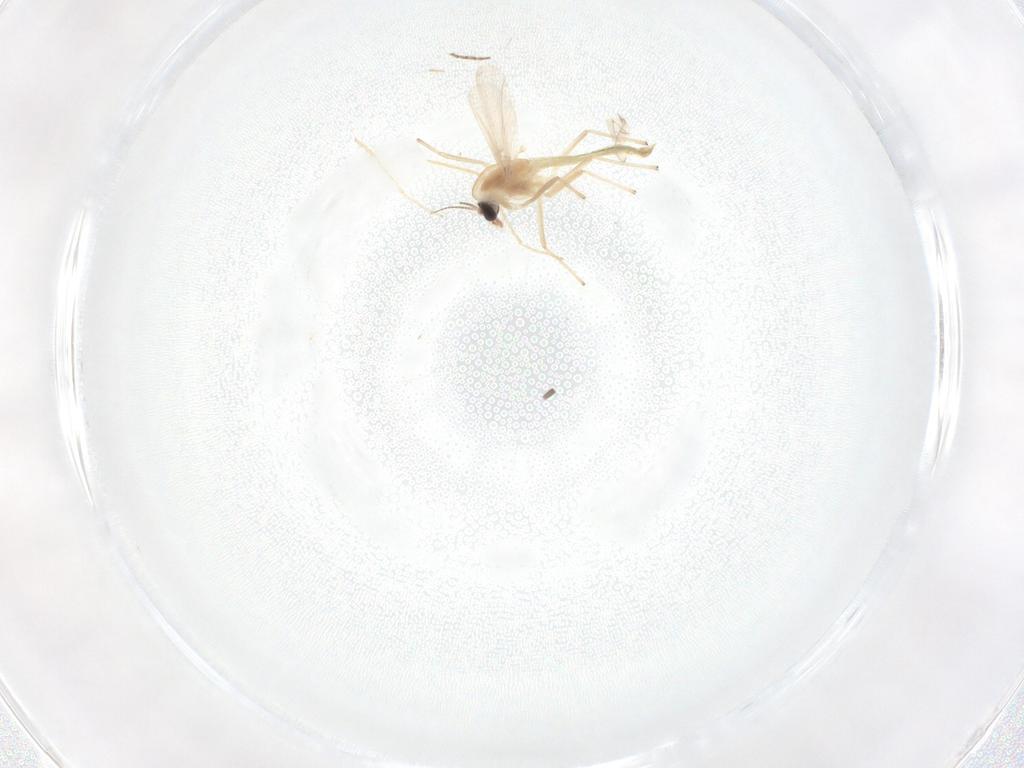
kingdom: Animalia
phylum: Arthropoda
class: Insecta
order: Diptera
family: Chironomidae
